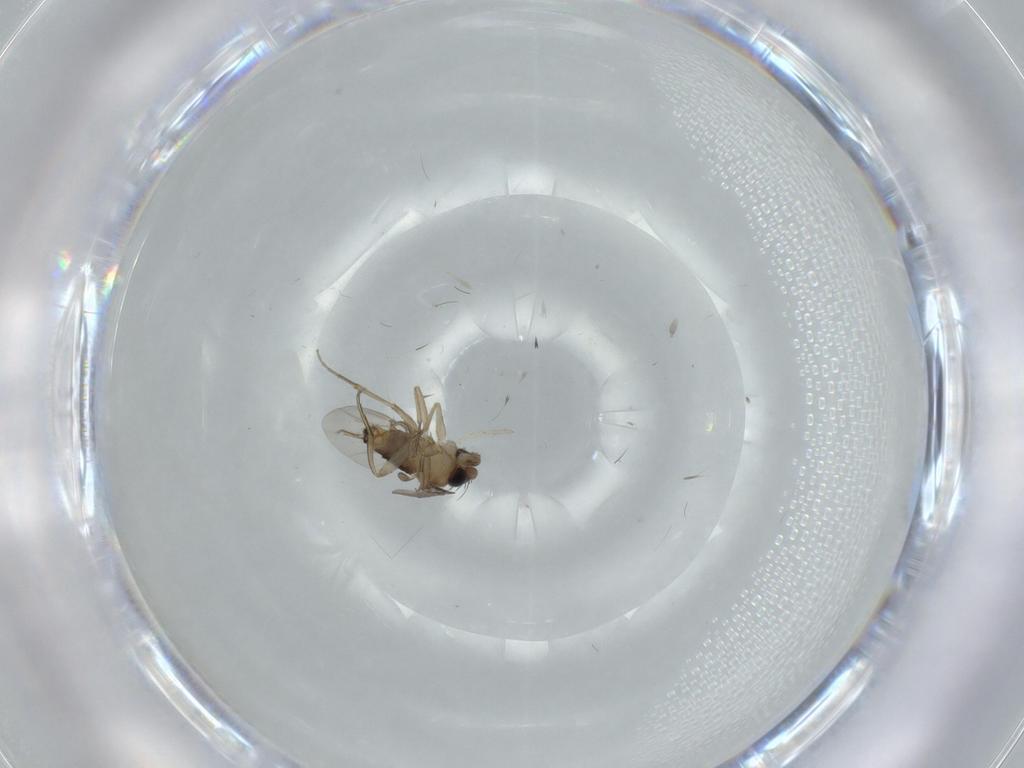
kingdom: Animalia
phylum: Arthropoda
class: Insecta
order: Diptera
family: Phoridae
